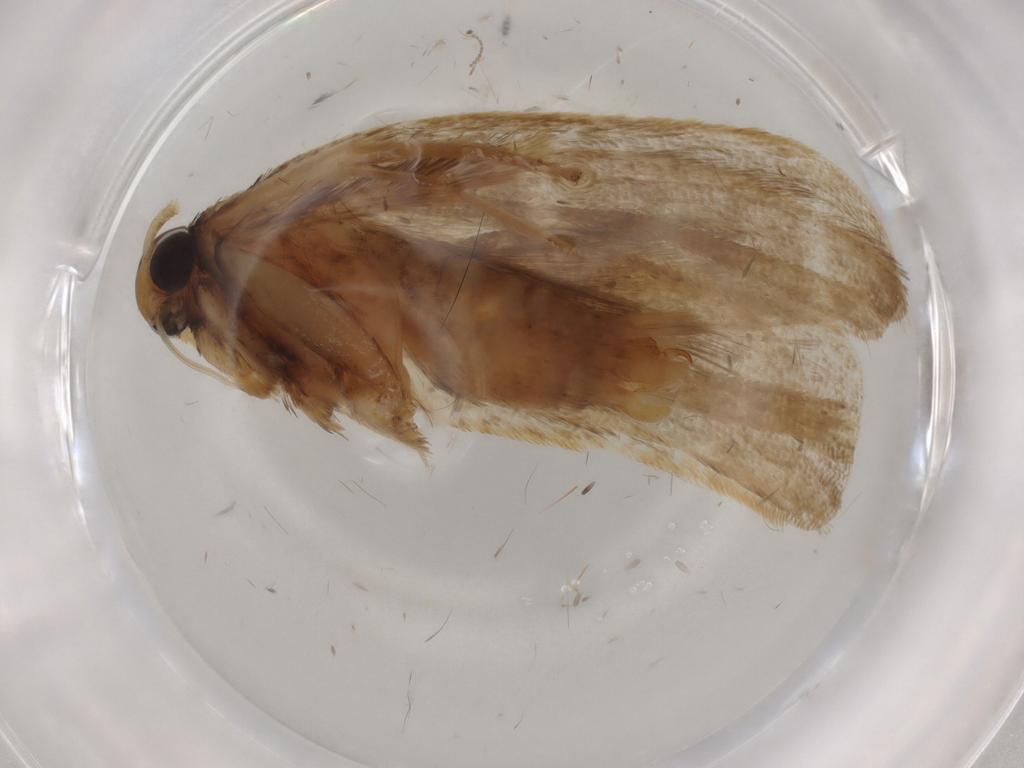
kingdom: Animalia
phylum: Arthropoda
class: Insecta
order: Lepidoptera
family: Lecithoceridae
